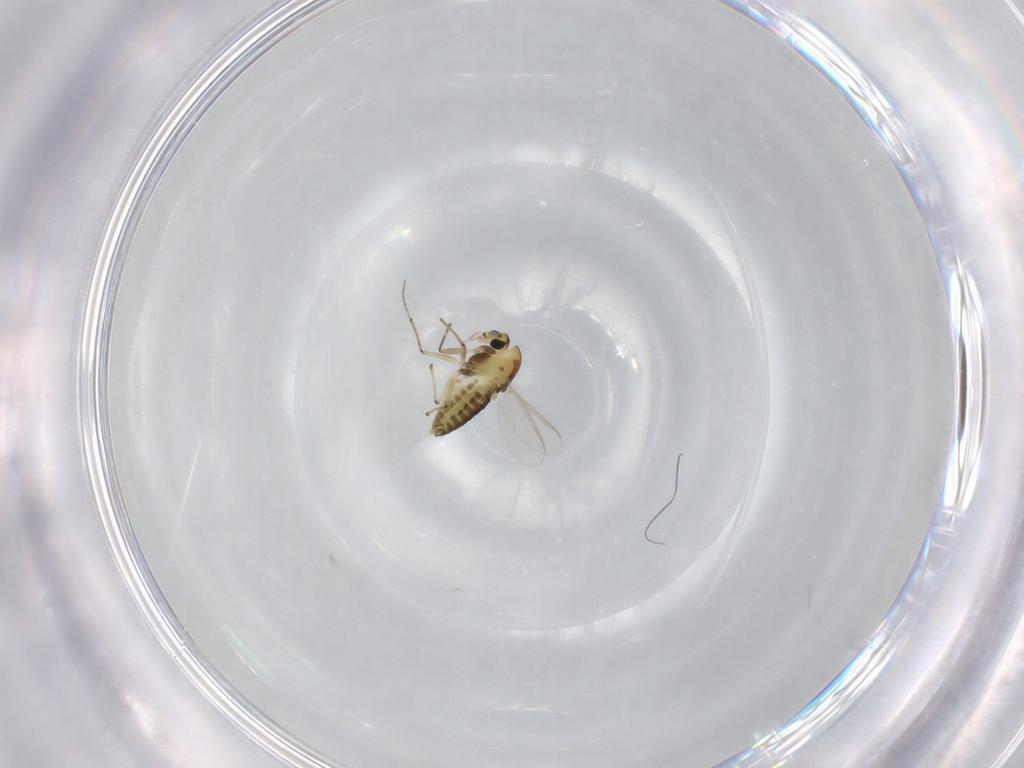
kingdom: Animalia
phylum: Arthropoda
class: Insecta
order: Diptera
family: Chironomidae
